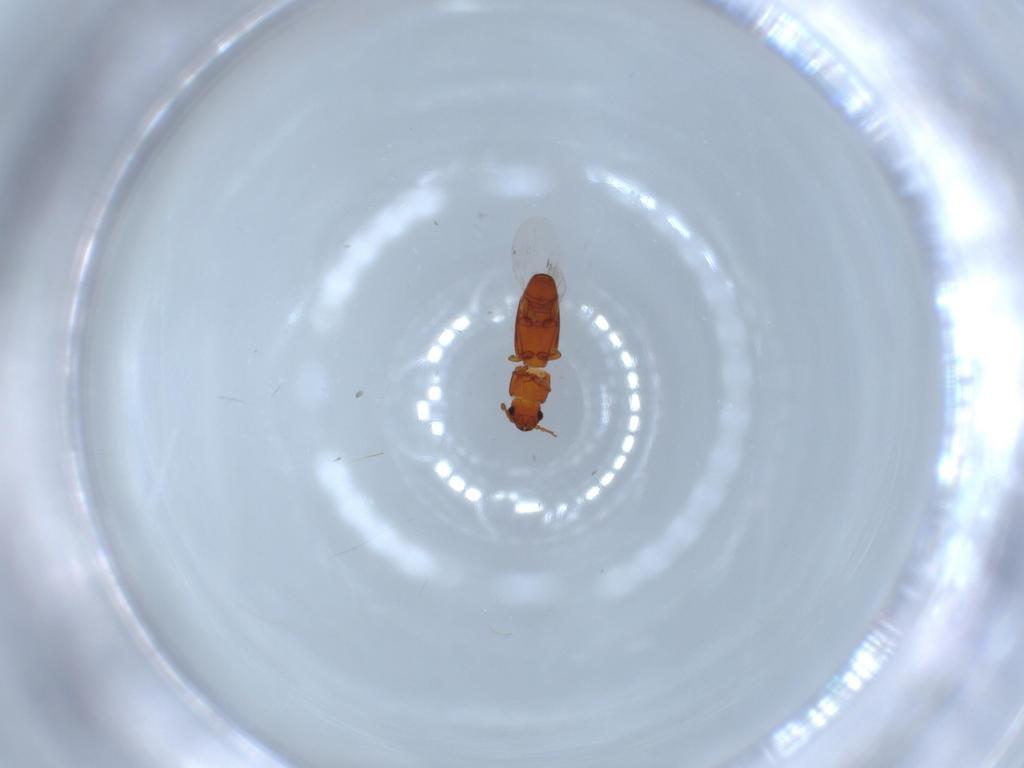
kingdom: Animalia
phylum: Arthropoda
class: Insecta
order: Coleoptera
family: Smicripidae
